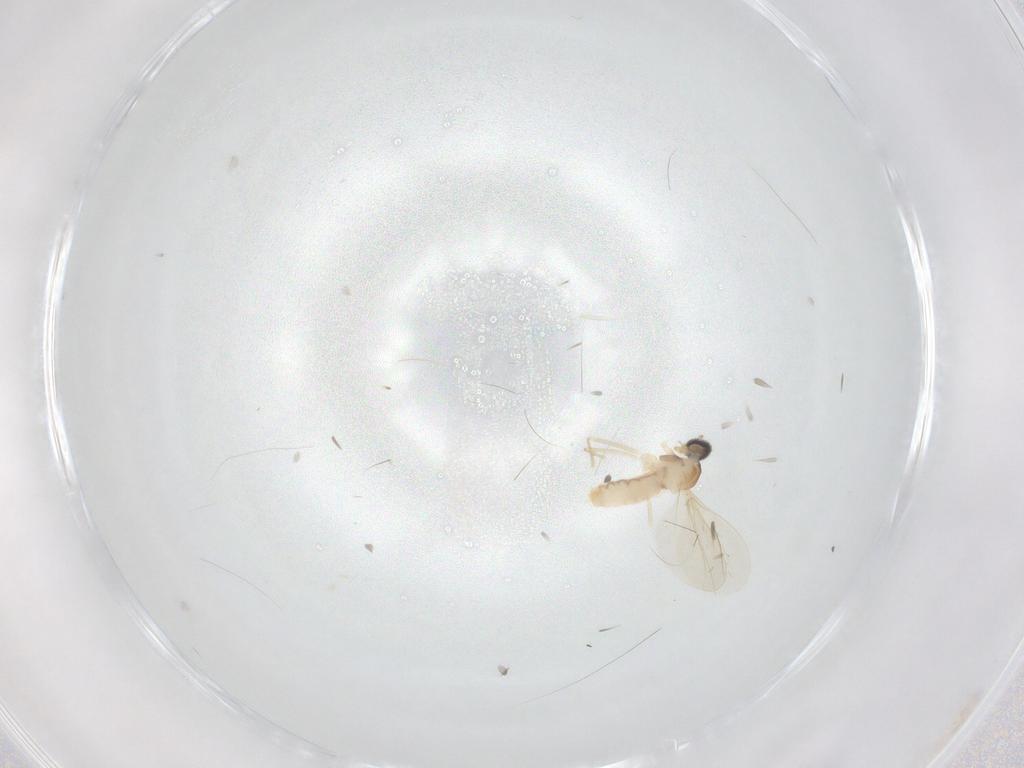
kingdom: Animalia
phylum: Arthropoda
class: Insecta
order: Diptera
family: Cecidomyiidae
